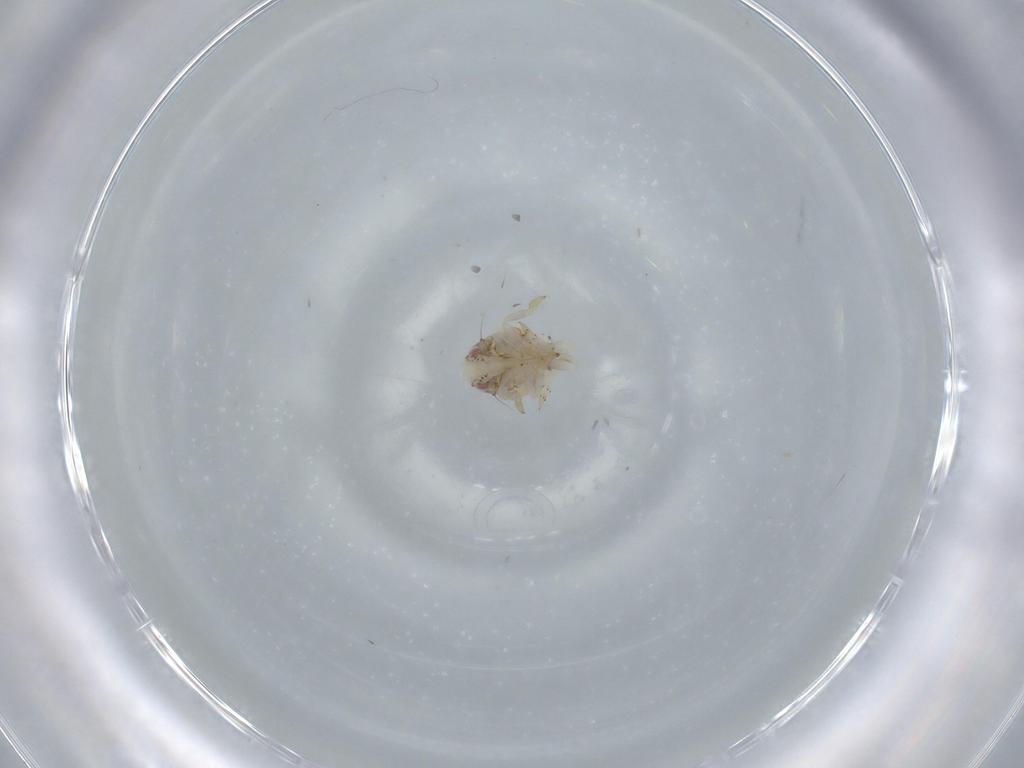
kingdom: Animalia
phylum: Arthropoda
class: Insecta
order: Hemiptera
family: Acanaloniidae
